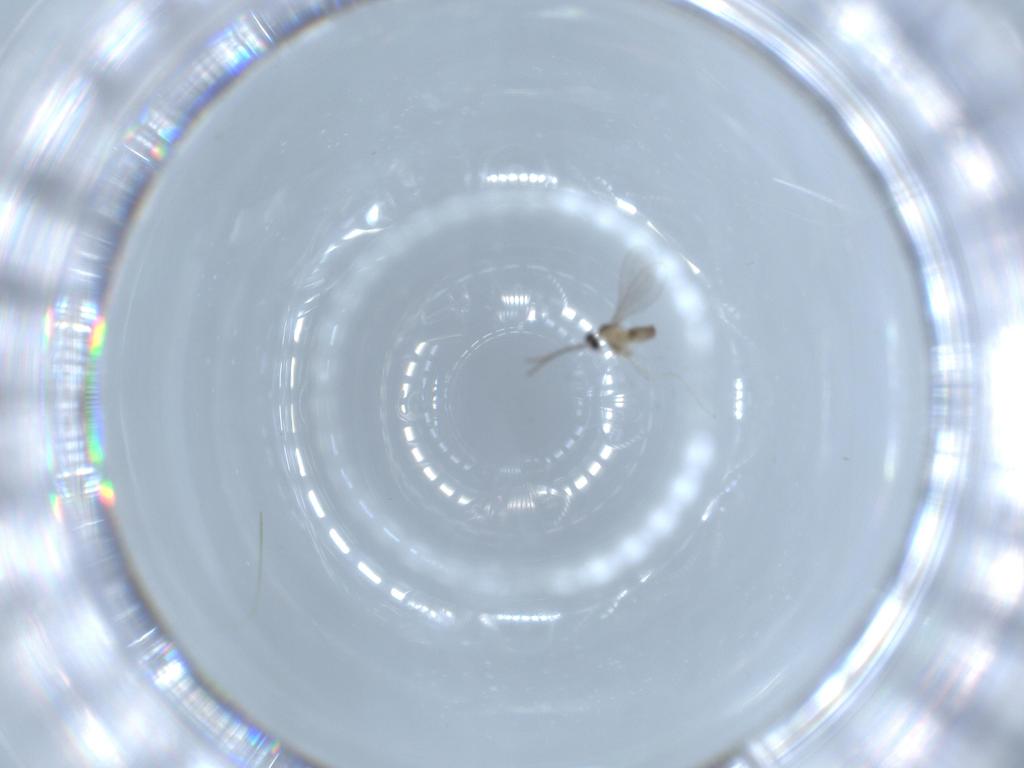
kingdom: Animalia
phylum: Arthropoda
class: Insecta
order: Diptera
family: Cecidomyiidae
